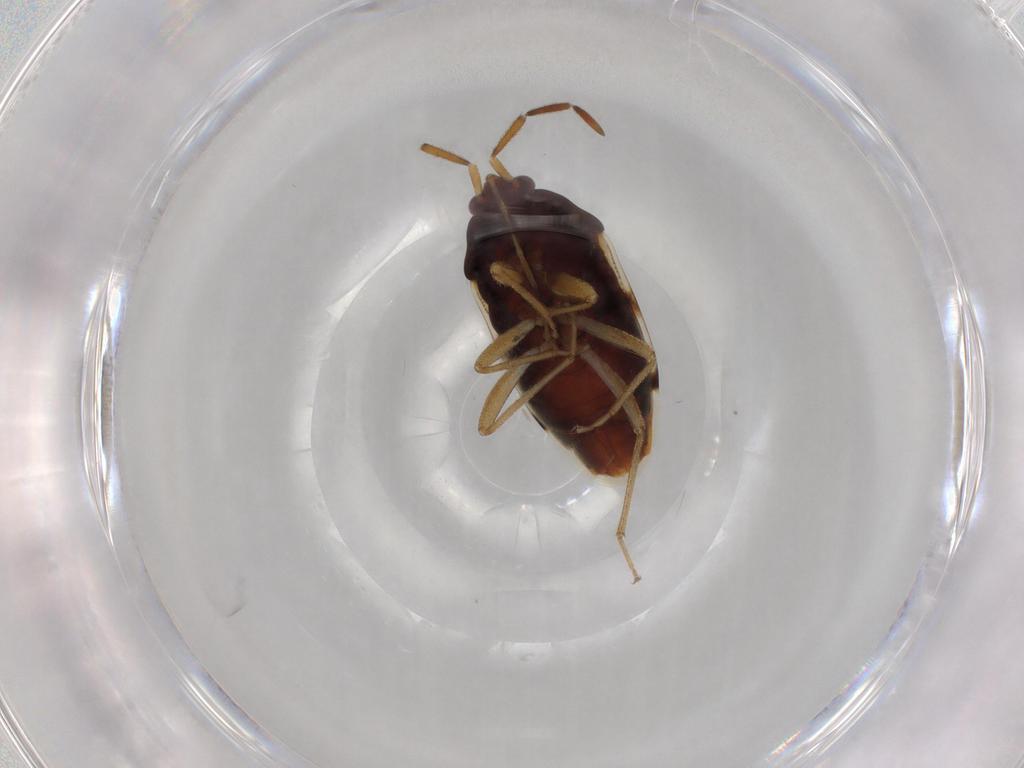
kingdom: Animalia
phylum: Arthropoda
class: Insecta
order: Hemiptera
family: Rhyparochromidae
